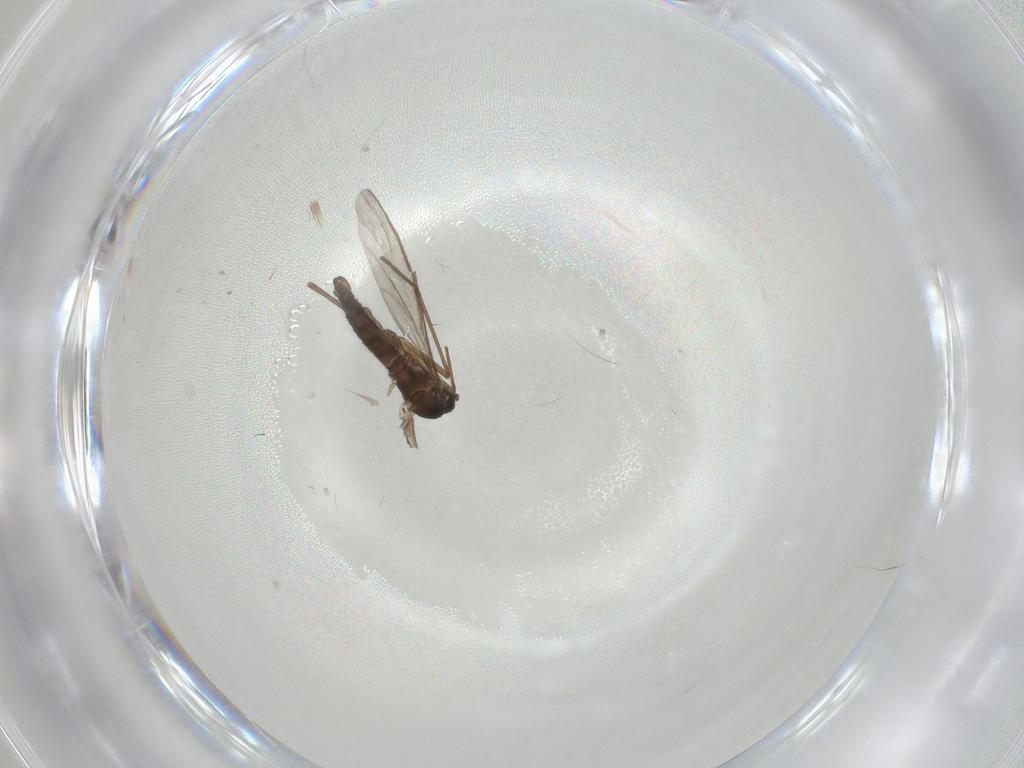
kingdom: Animalia
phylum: Arthropoda
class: Insecta
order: Diptera
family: Sciaridae
